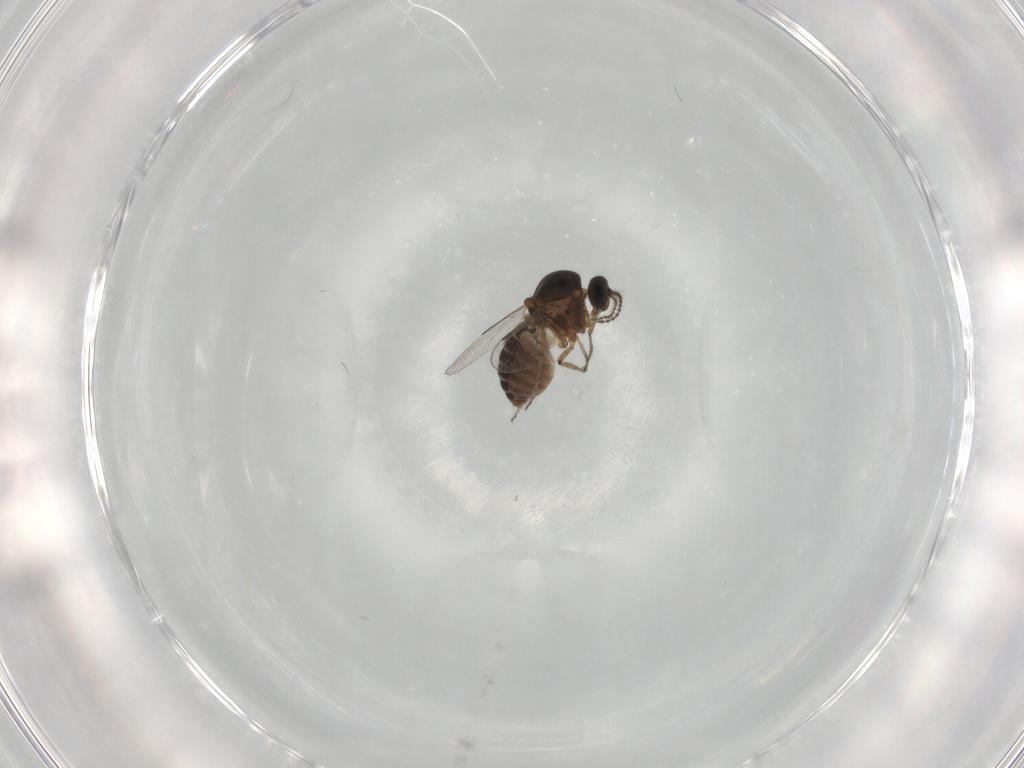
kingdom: Animalia
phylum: Arthropoda
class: Insecta
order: Diptera
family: Ceratopogonidae
